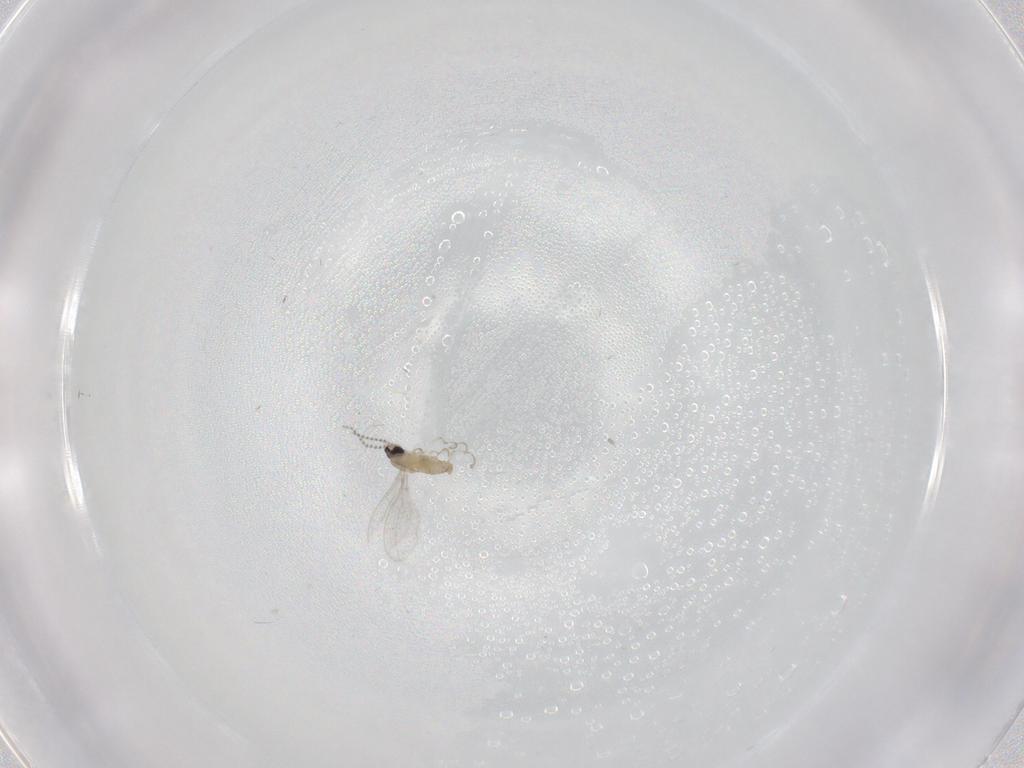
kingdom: Animalia
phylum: Arthropoda
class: Insecta
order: Diptera
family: Cecidomyiidae
